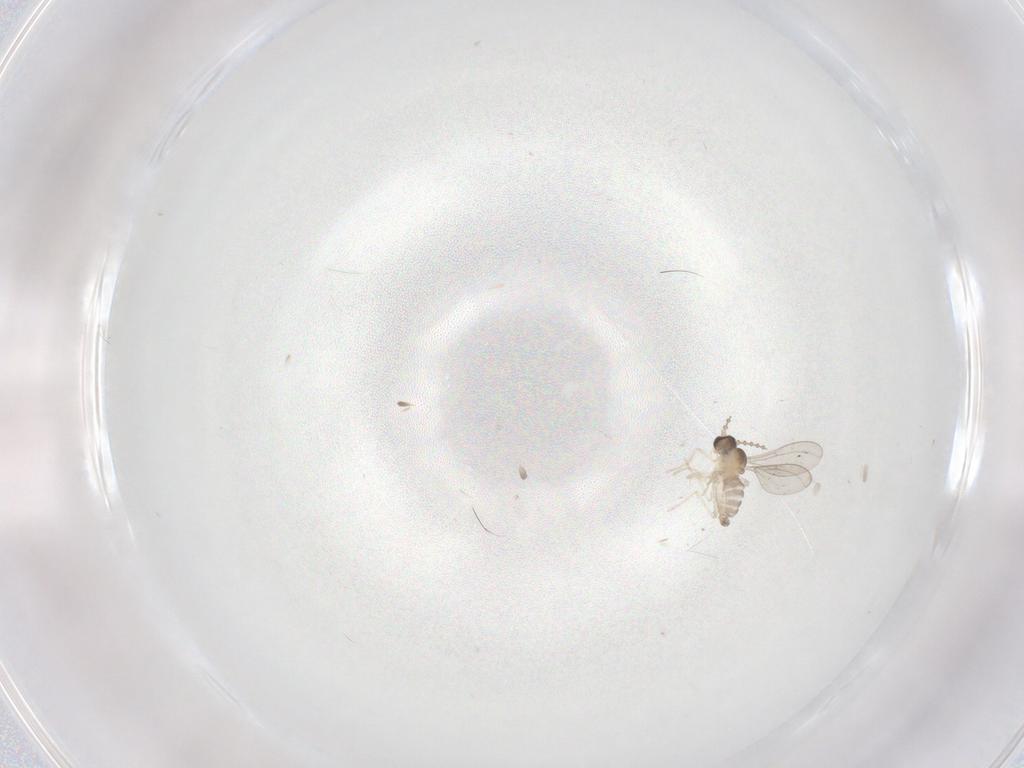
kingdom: Animalia
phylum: Arthropoda
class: Insecta
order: Diptera
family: Cecidomyiidae
